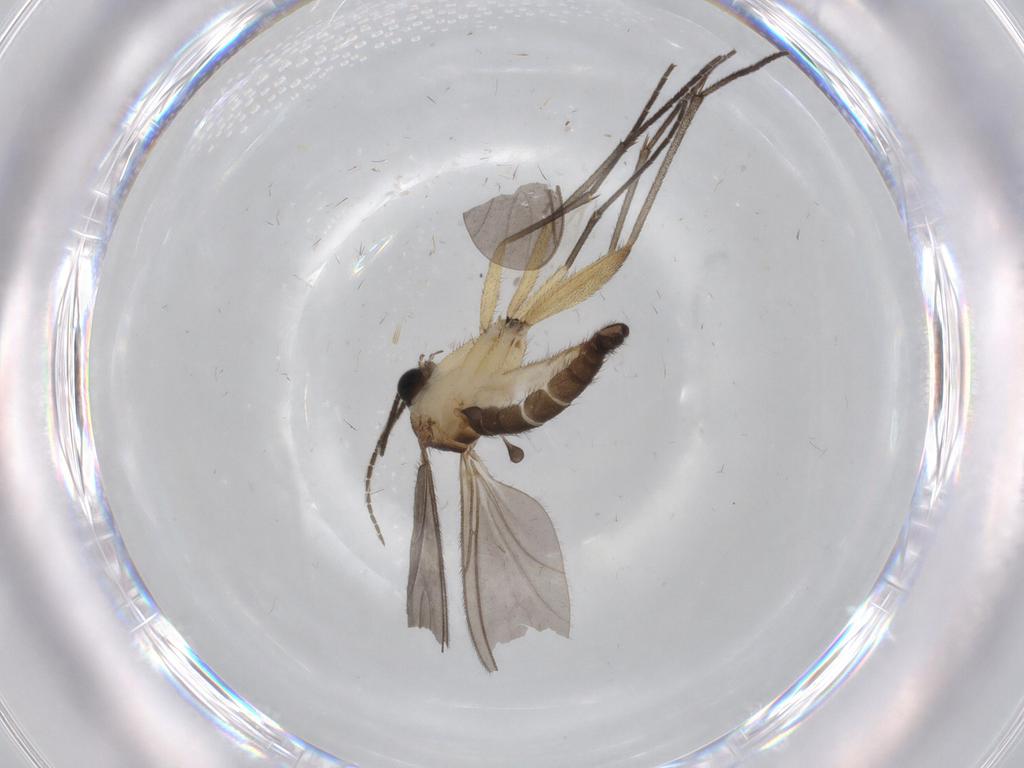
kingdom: Animalia
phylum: Arthropoda
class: Insecta
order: Diptera
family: Sciaridae
